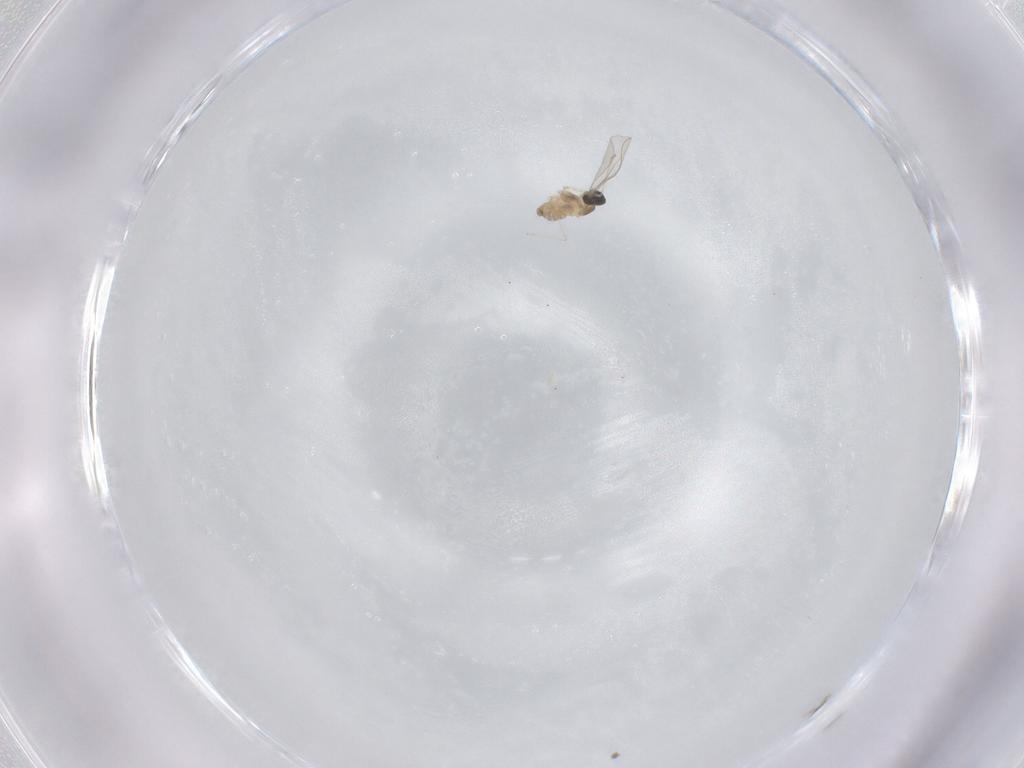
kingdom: Animalia
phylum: Arthropoda
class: Insecta
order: Diptera
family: Cecidomyiidae
